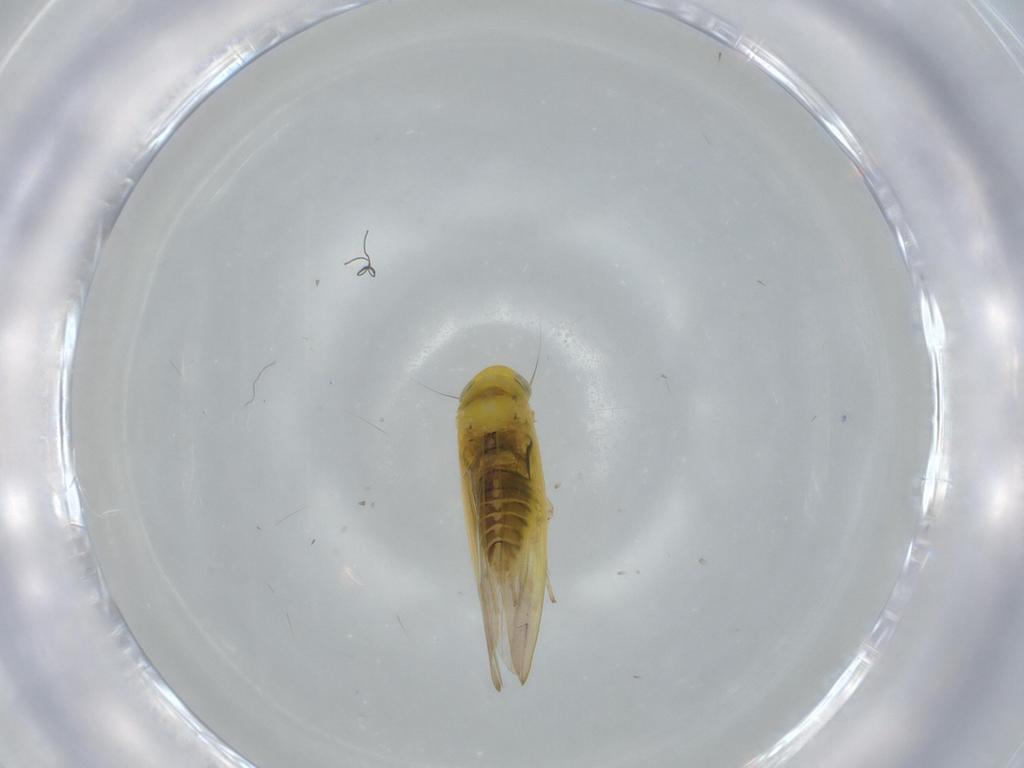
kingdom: Animalia
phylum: Arthropoda
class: Insecta
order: Hemiptera
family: Cicadellidae
